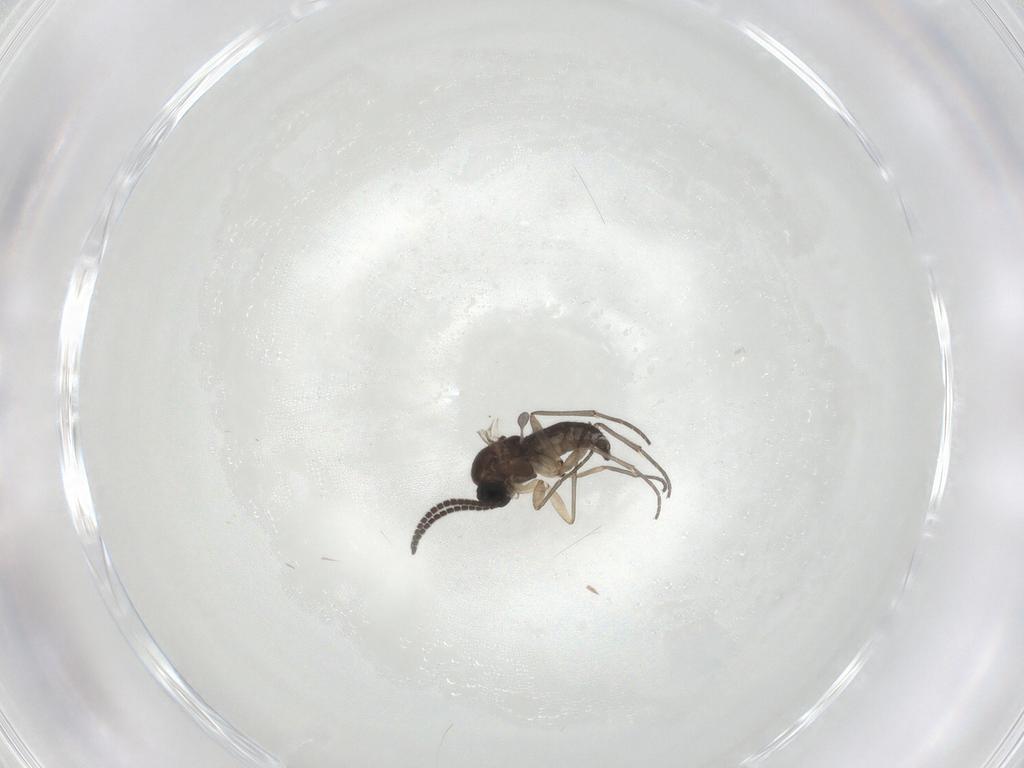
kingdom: Animalia
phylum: Arthropoda
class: Insecta
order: Diptera
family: Sciaridae
